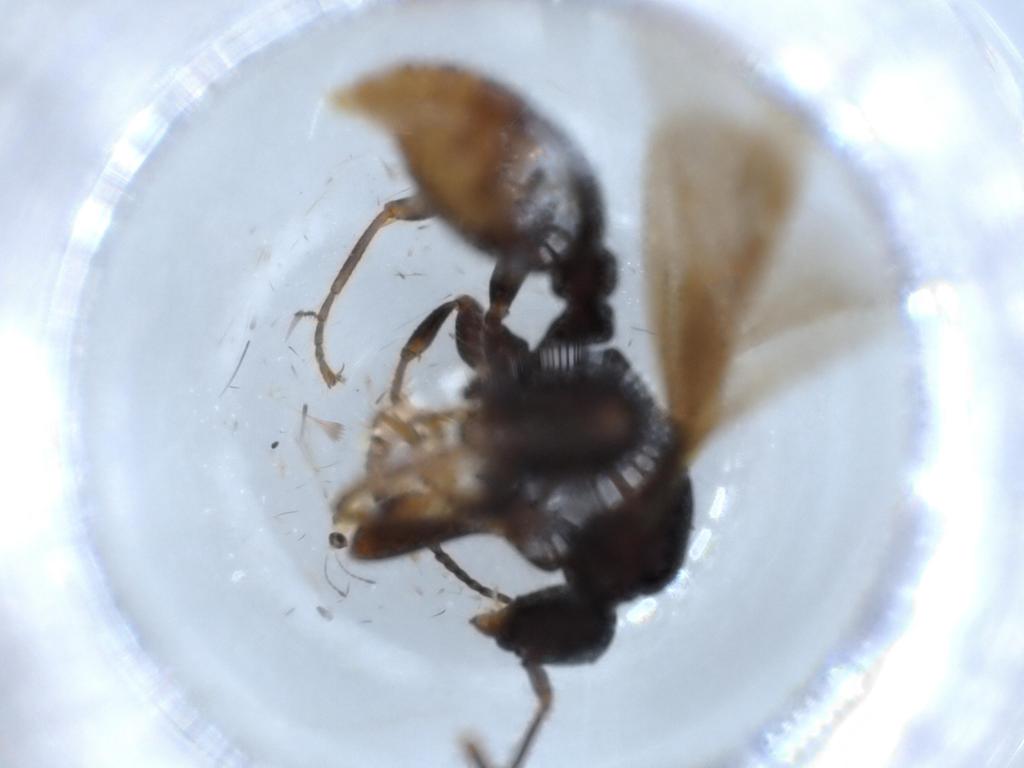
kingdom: Animalia
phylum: Arthropoda
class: Insecta
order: Hymenoptera
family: Formicidae
